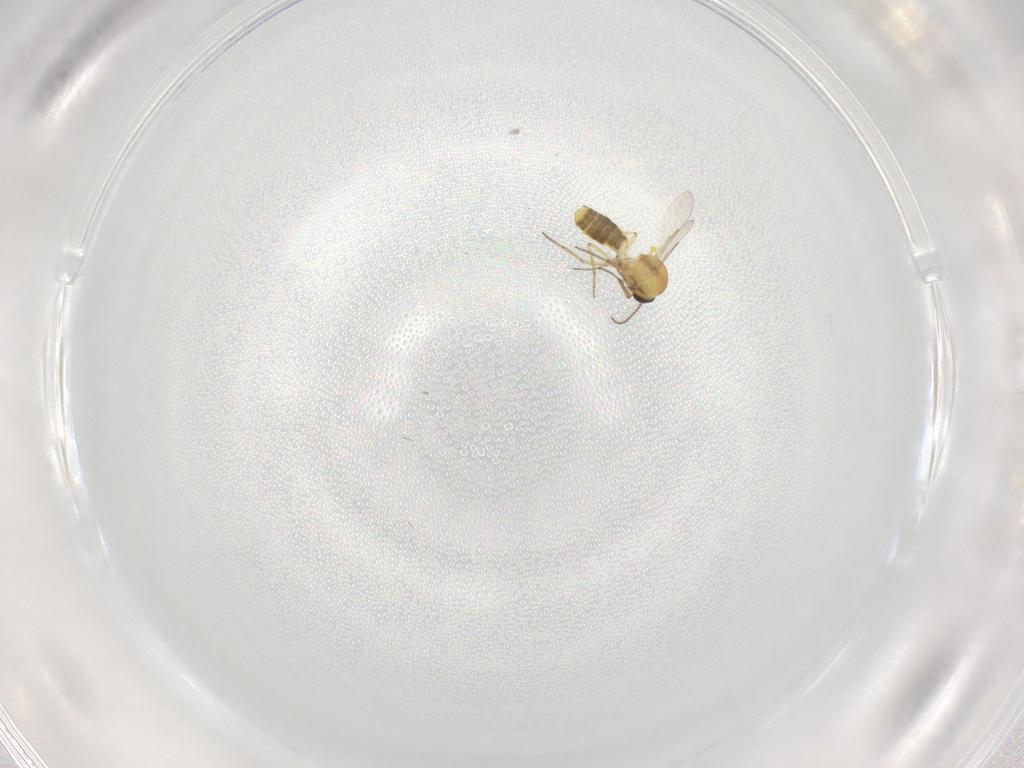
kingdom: Animalia
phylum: Arthropoda
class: Insecta
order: Diptera
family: Ceratopogonidae
